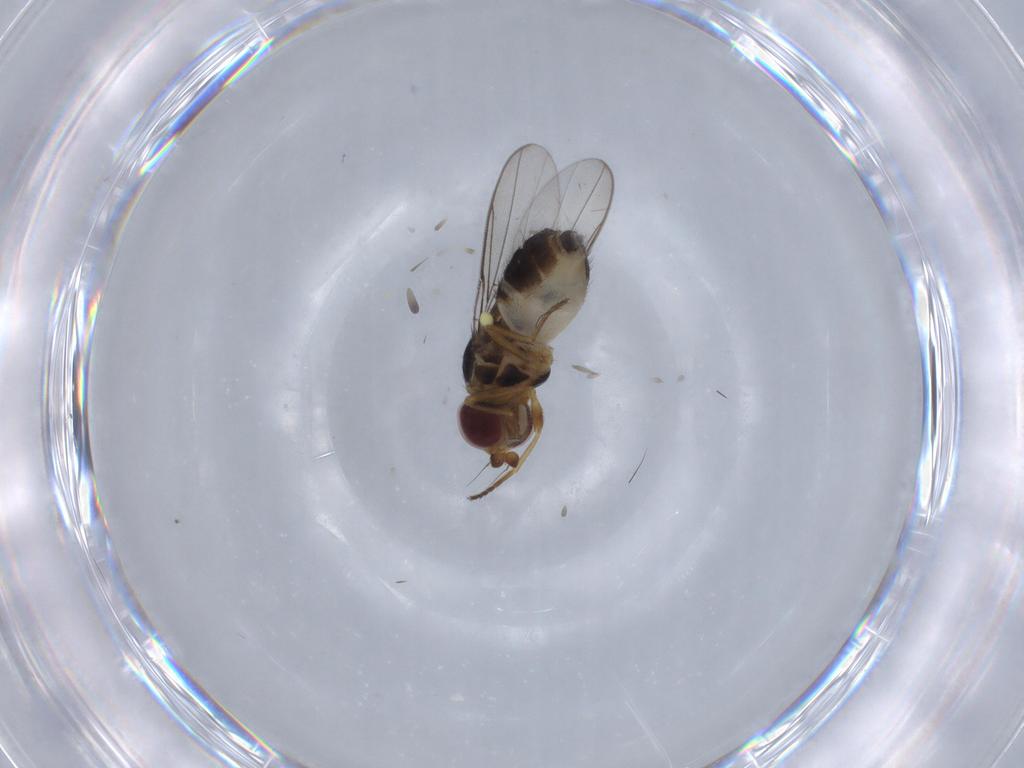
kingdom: Animalia
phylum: Arthropoda
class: Insecta
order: Diptera
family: Chloropidae
